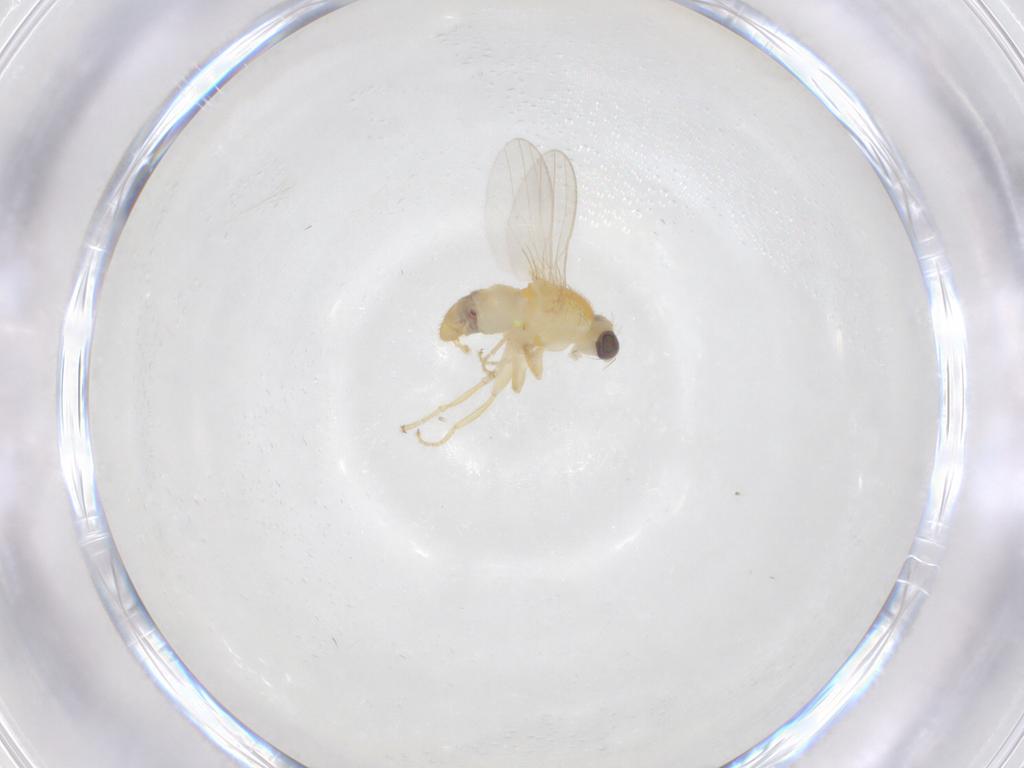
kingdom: Animalia
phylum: Arthropoda
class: Insecta
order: Diptera
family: Chyromyidae
